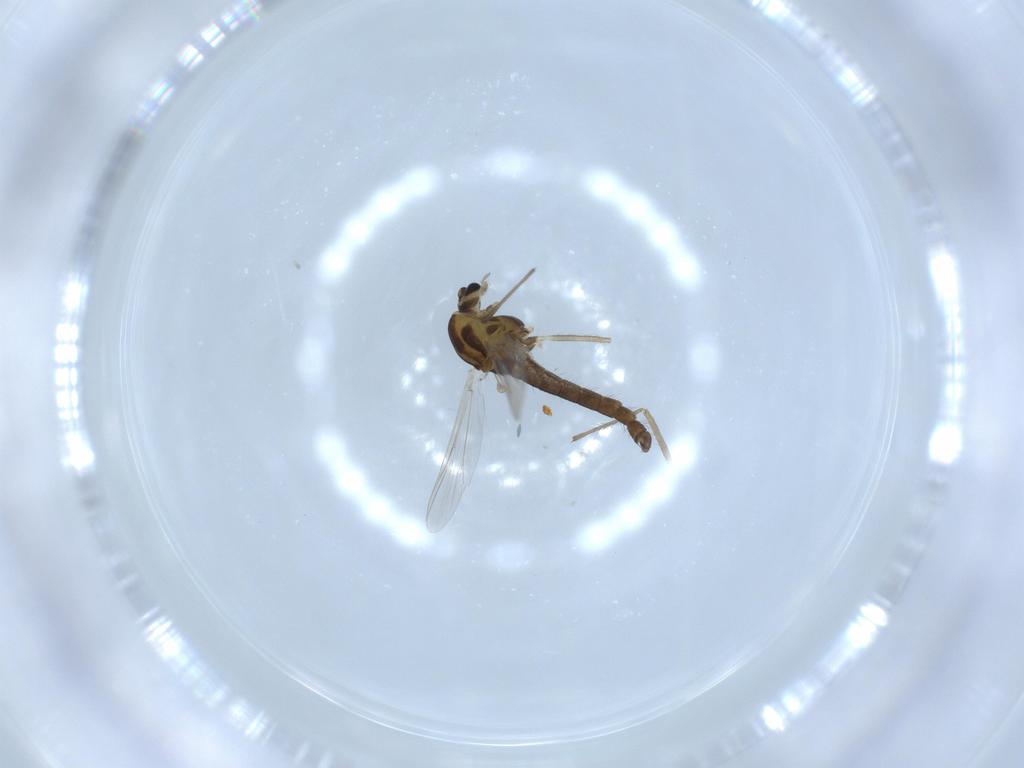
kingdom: Animalia
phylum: Arthropoda
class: Insecta
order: Diptera
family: Chironomidae
